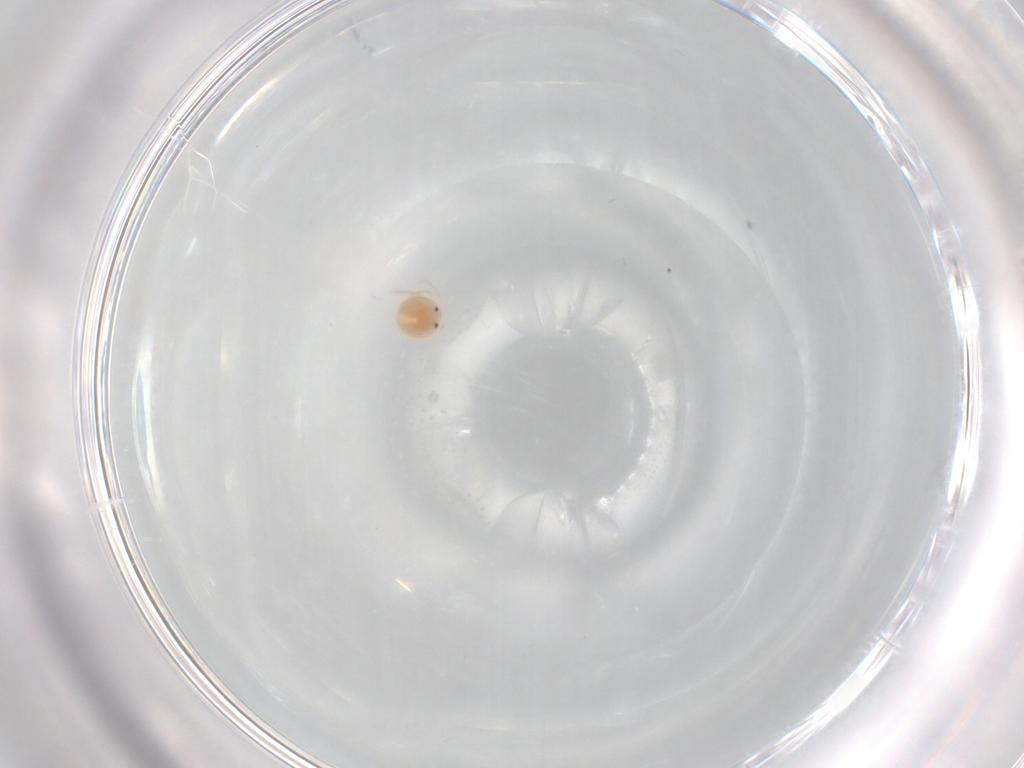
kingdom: Animalia
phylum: Arthropoda
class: Arachnida
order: Trombidiformes
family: Lebertiidae
